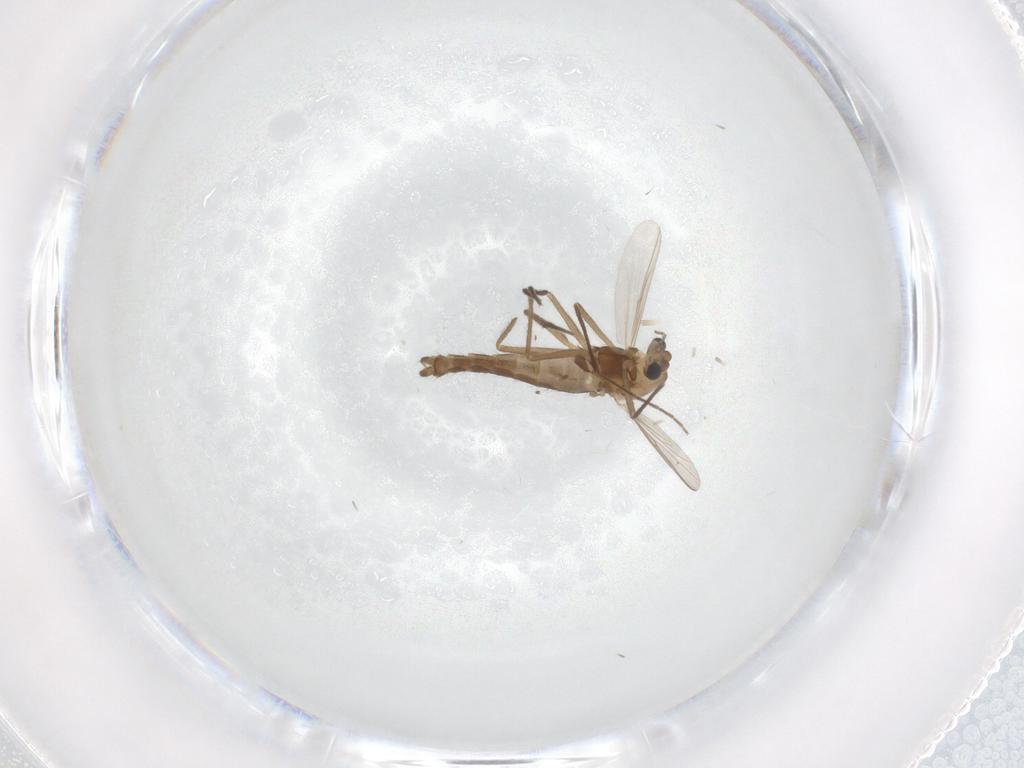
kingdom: Animalia
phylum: Arthropoda
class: Insecta
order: Diptera
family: Chironomidae
